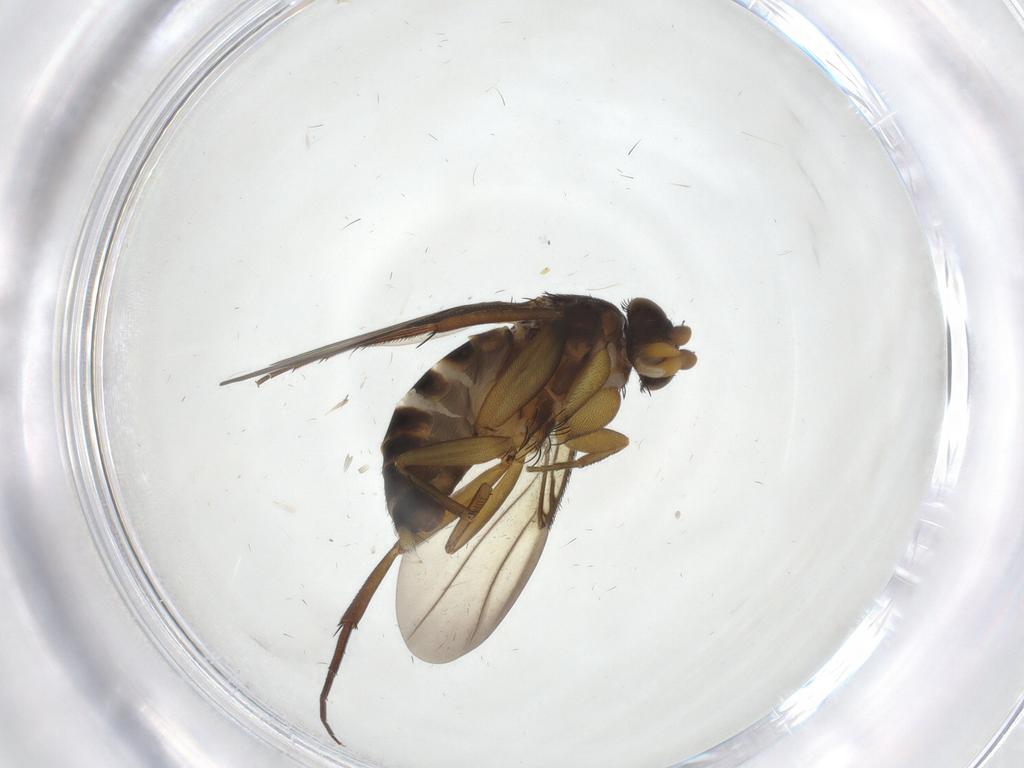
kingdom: Animalia
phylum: Arthropoda
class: Insecta
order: Diptera
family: Phoridae
